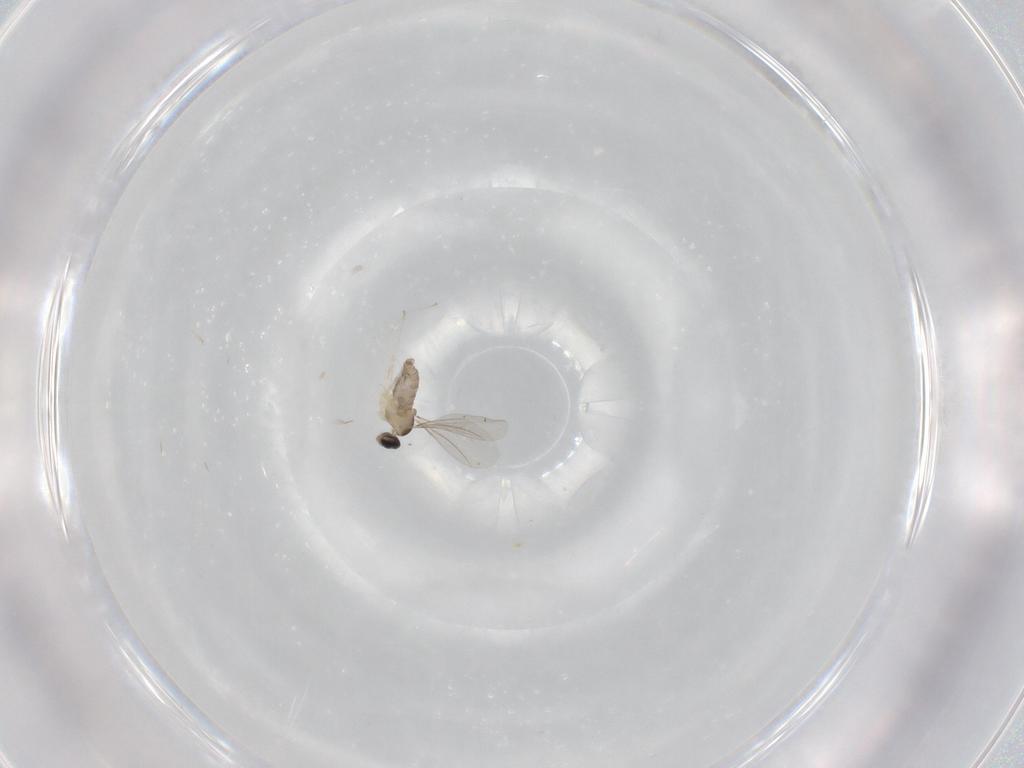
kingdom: Animalia
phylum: Arthropoda
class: Insecta
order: Diptera
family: Cecidomyiidae
